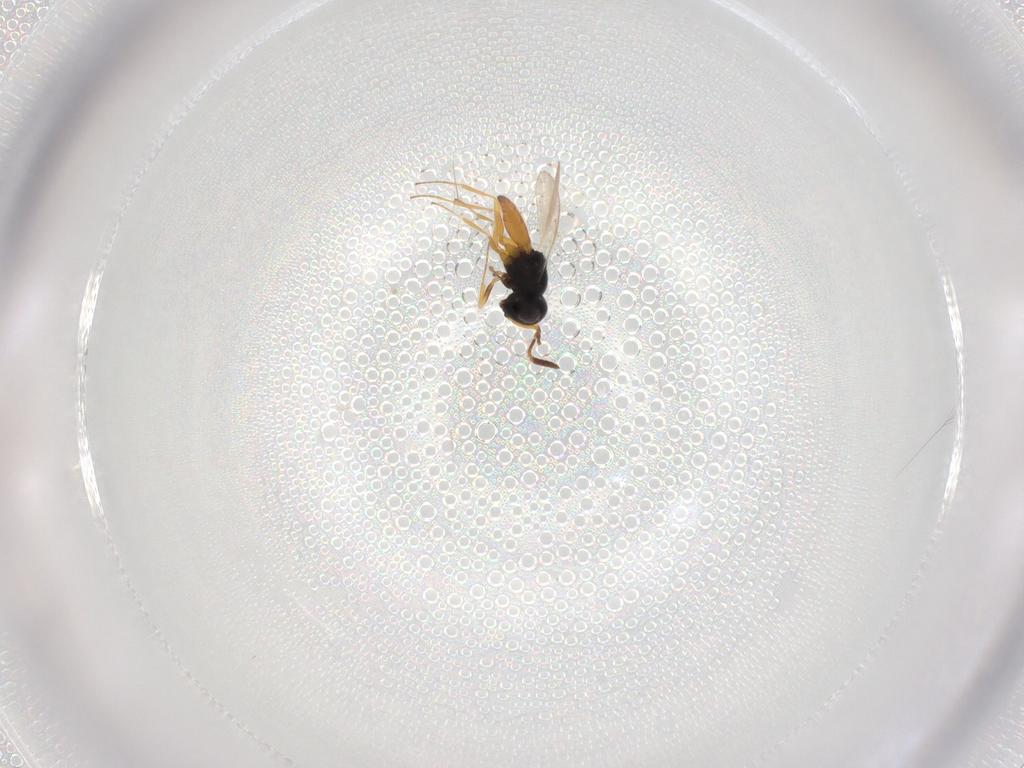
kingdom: Animalia
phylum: Arthropoda
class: Insecta
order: Hymenoptera
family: Scelionidae
